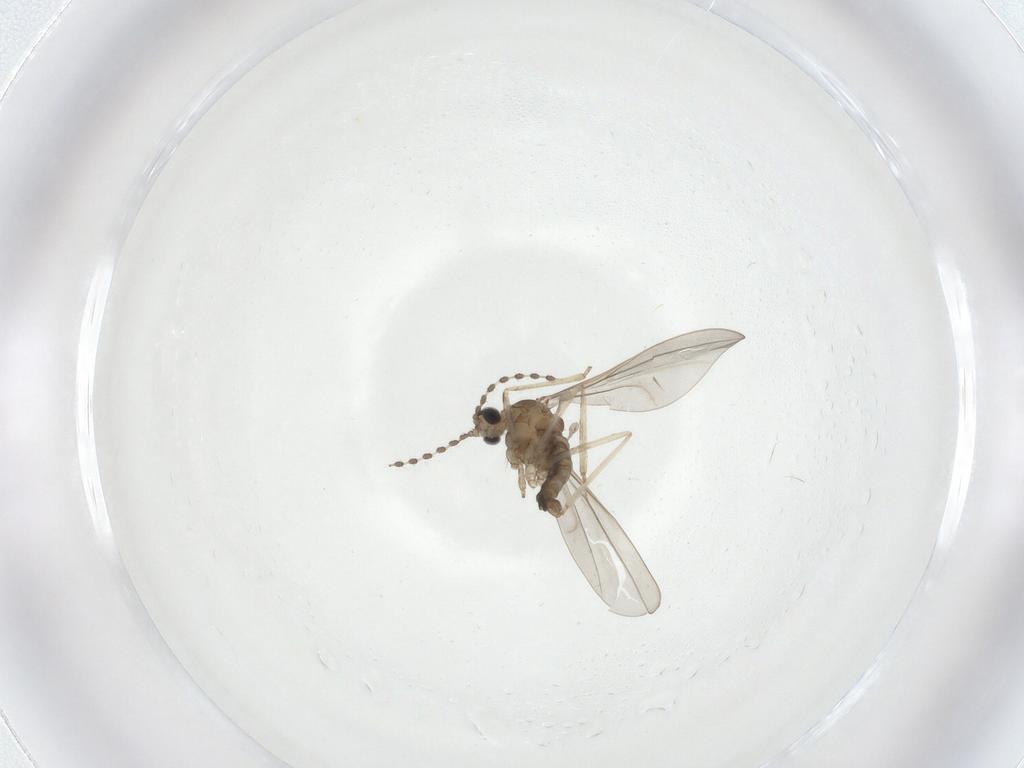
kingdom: Animalia
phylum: Arthropoda
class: Insecta
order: Diptera
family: Cecidomyiidae
